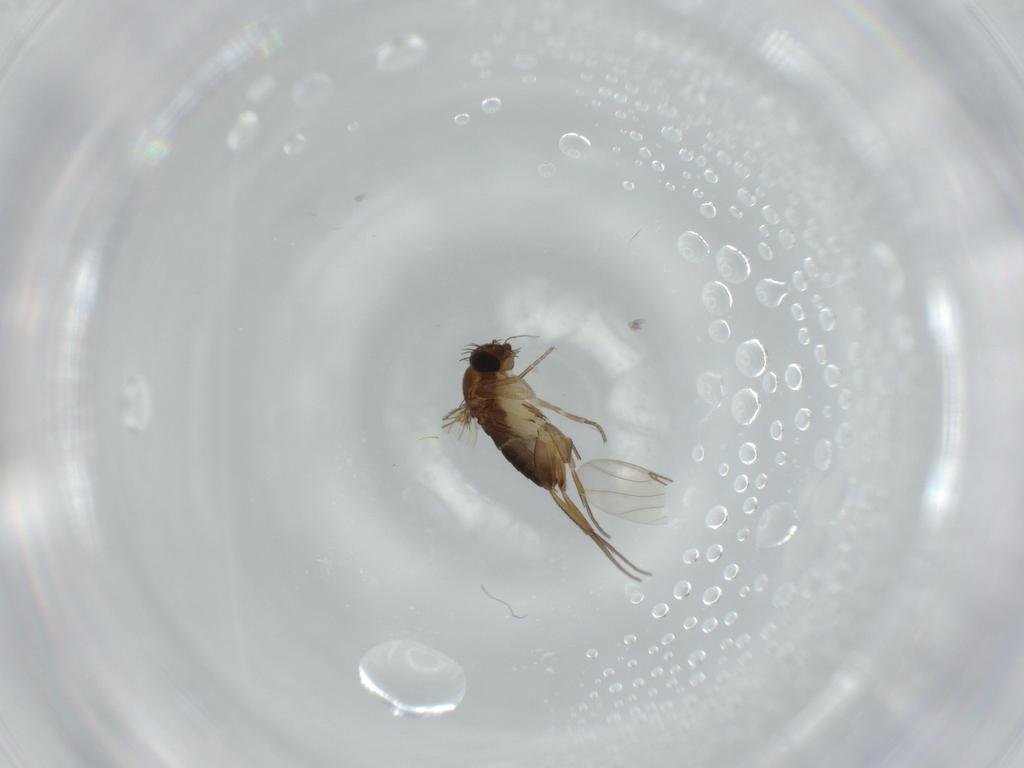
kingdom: Animalia
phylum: Arthropoda
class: Insecta
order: Diptera
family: Phoridae
